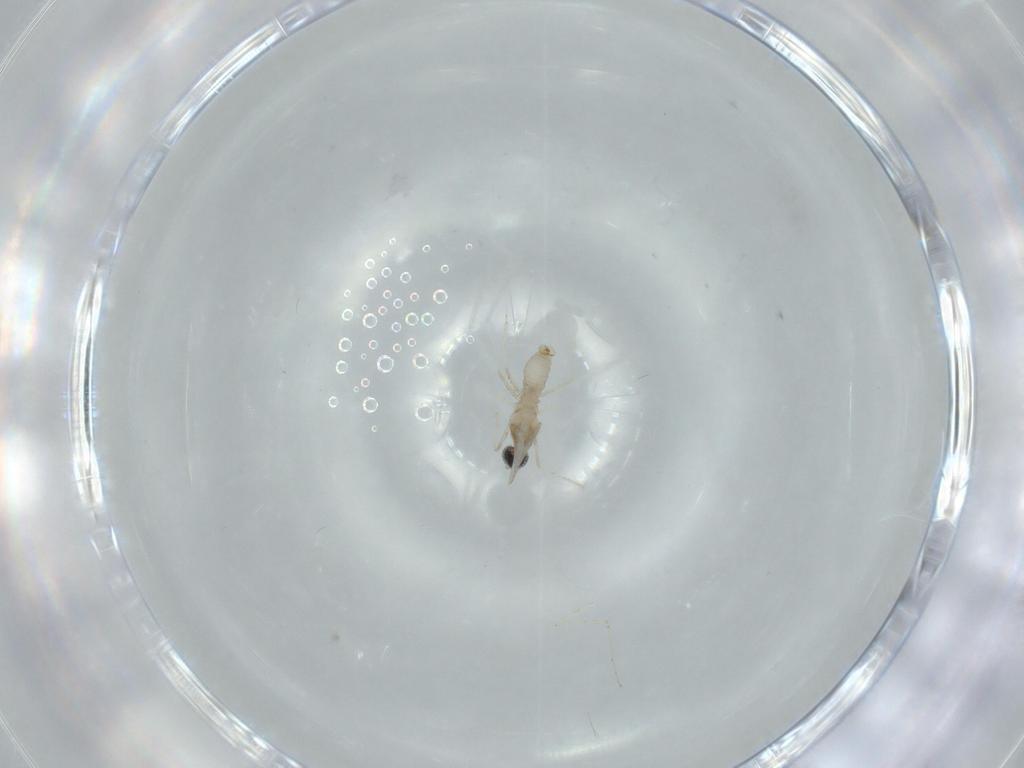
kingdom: Animalia
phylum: Arthropoda
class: Insecta
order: Diptera
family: Cecidomyiidae
